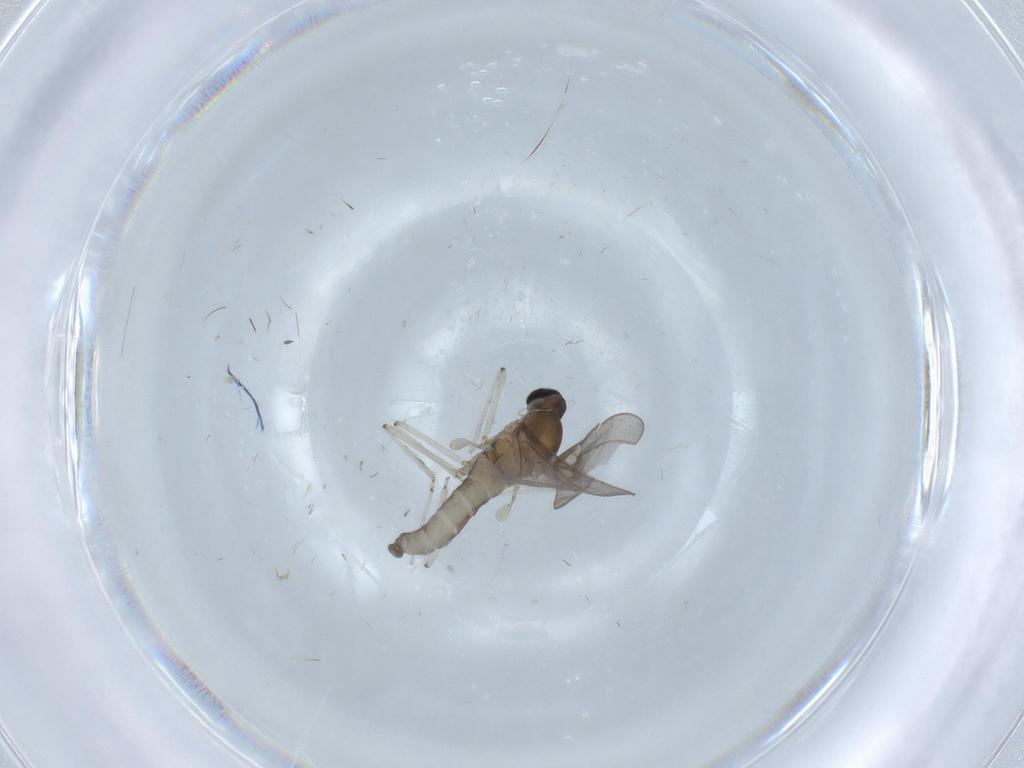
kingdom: Animalia
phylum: Arthropoda
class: Insecta
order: Diptera
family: Cecidomyiidae
